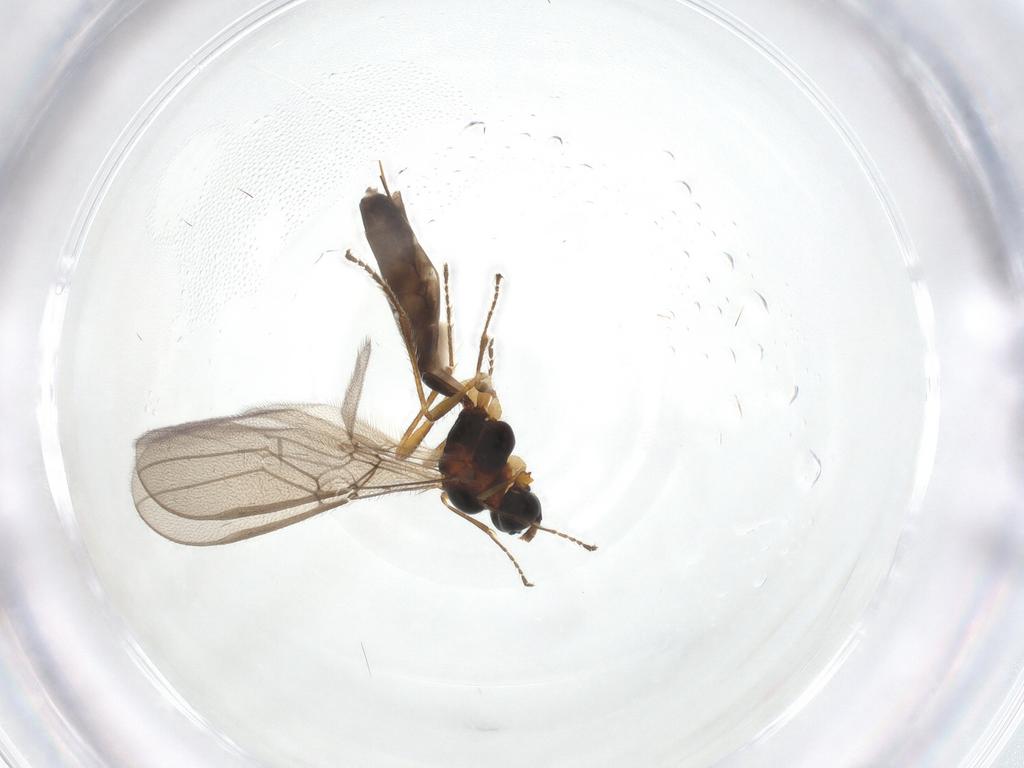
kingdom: Animalia
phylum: Arthropoda
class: Insecta
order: Hymenoptera
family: Braconidae
